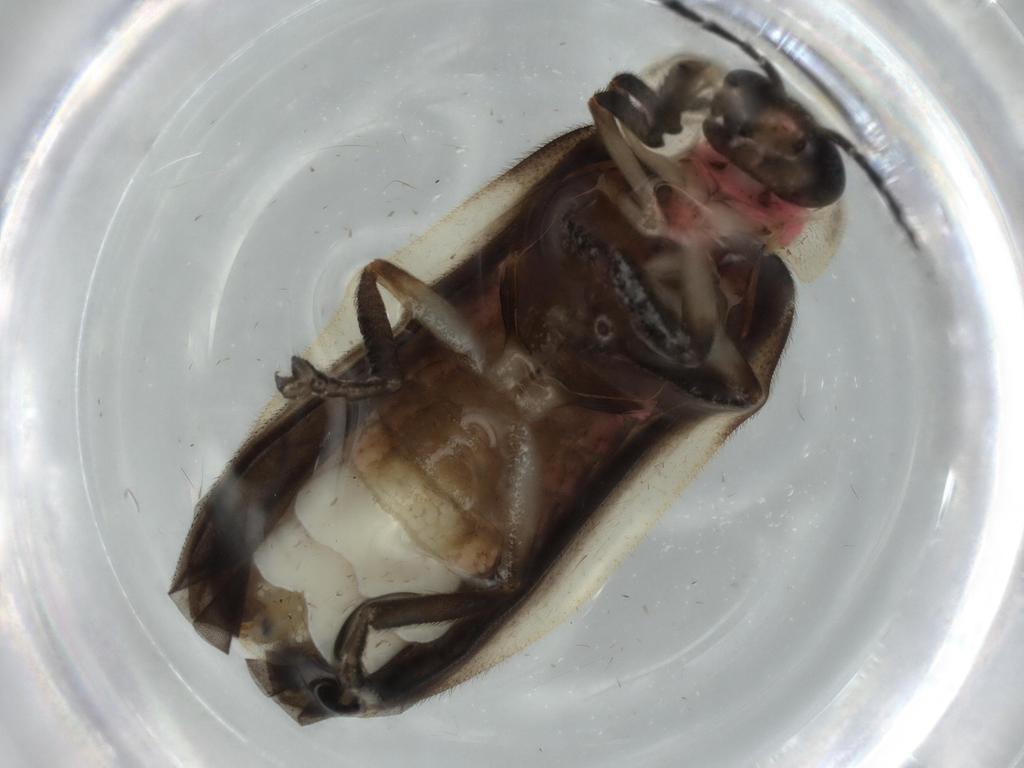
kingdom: Animalia
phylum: Arthropoda
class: Insecta
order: Coleoptera
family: Lampyridae
